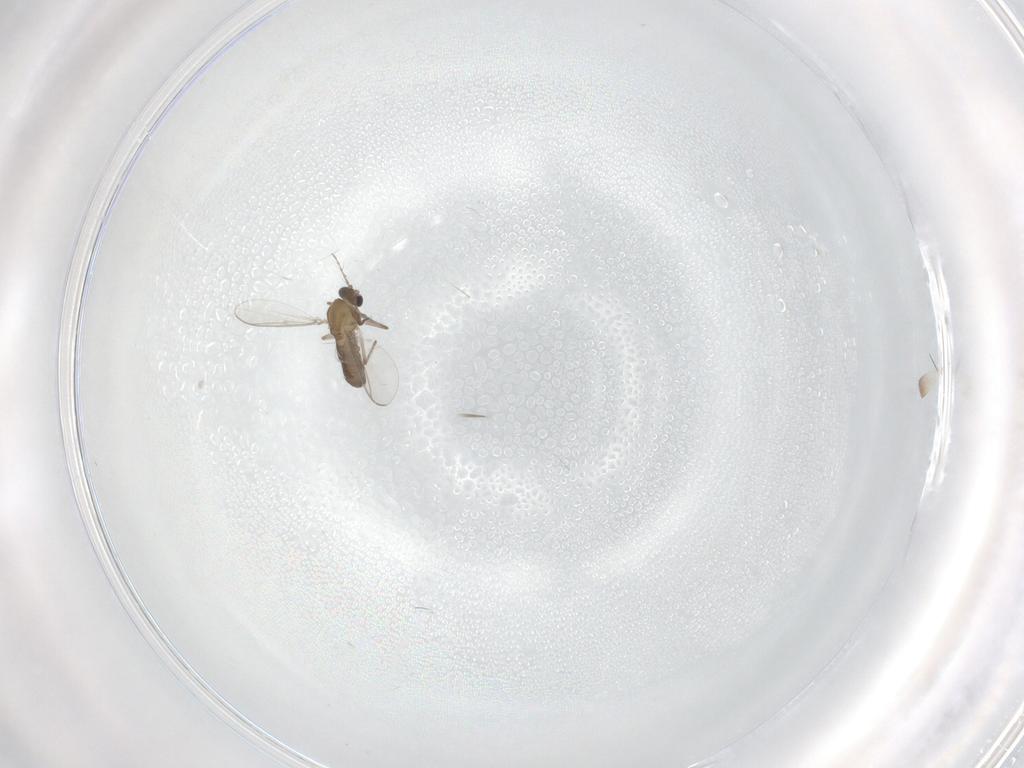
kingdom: Animalia
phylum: Arthropoda
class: Insecta
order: Diptera
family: Chironomidae
